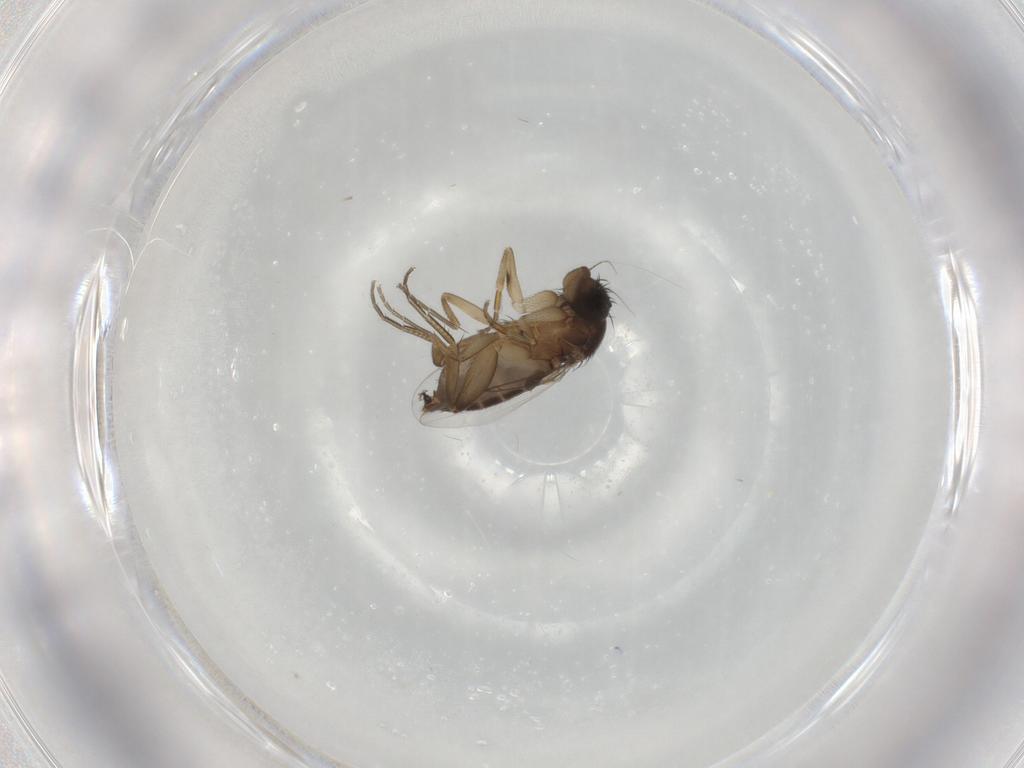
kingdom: Animalia
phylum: Arthropoda
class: Insecta
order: Diptera
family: Phoridae
